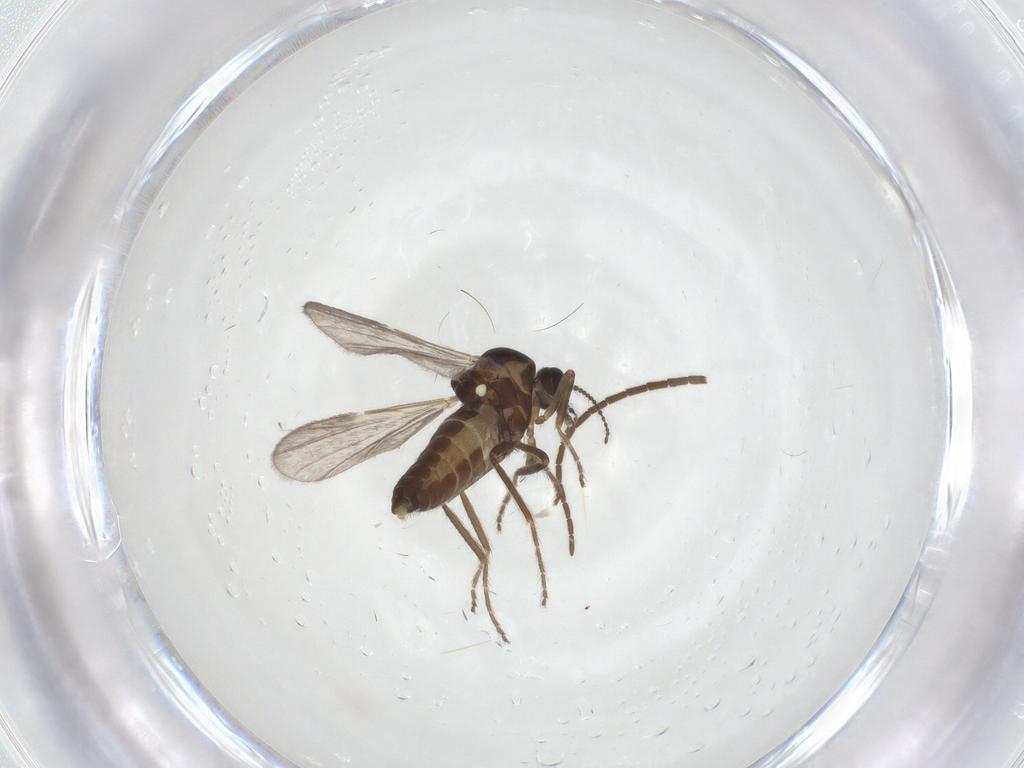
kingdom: Animalia
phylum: Arthropoda
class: Insecta
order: Diptera
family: Ceratopogonidae
